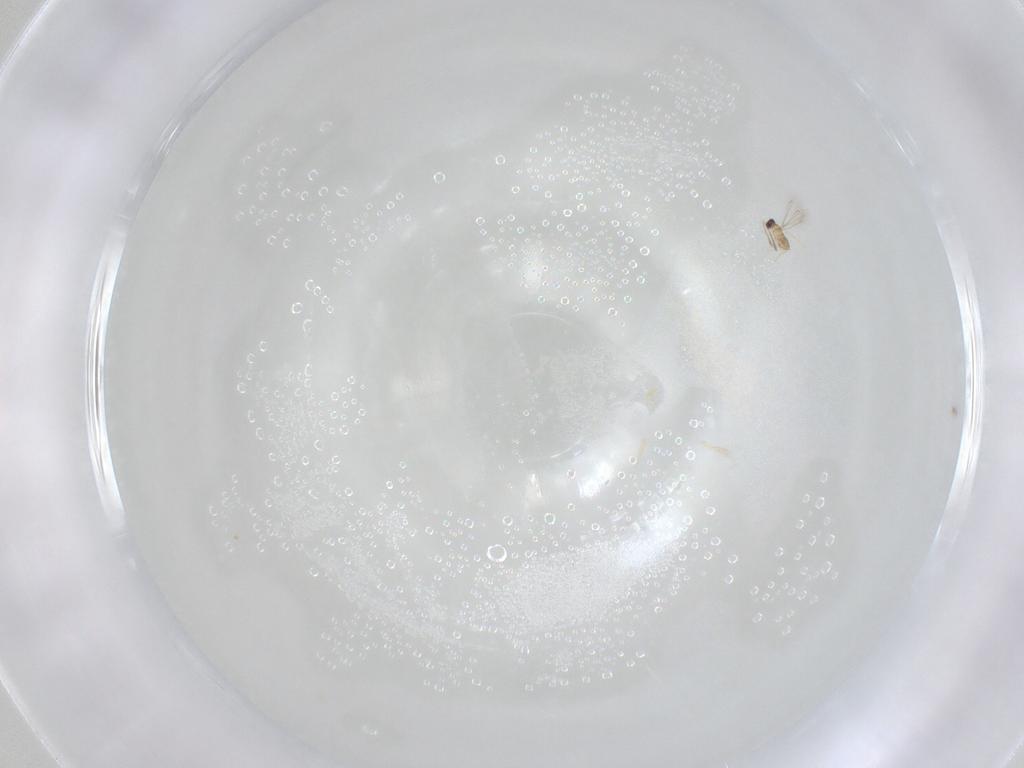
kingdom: Animalia
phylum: Arthropoda
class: Insecta
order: Hymenoptera
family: Mymaridae
